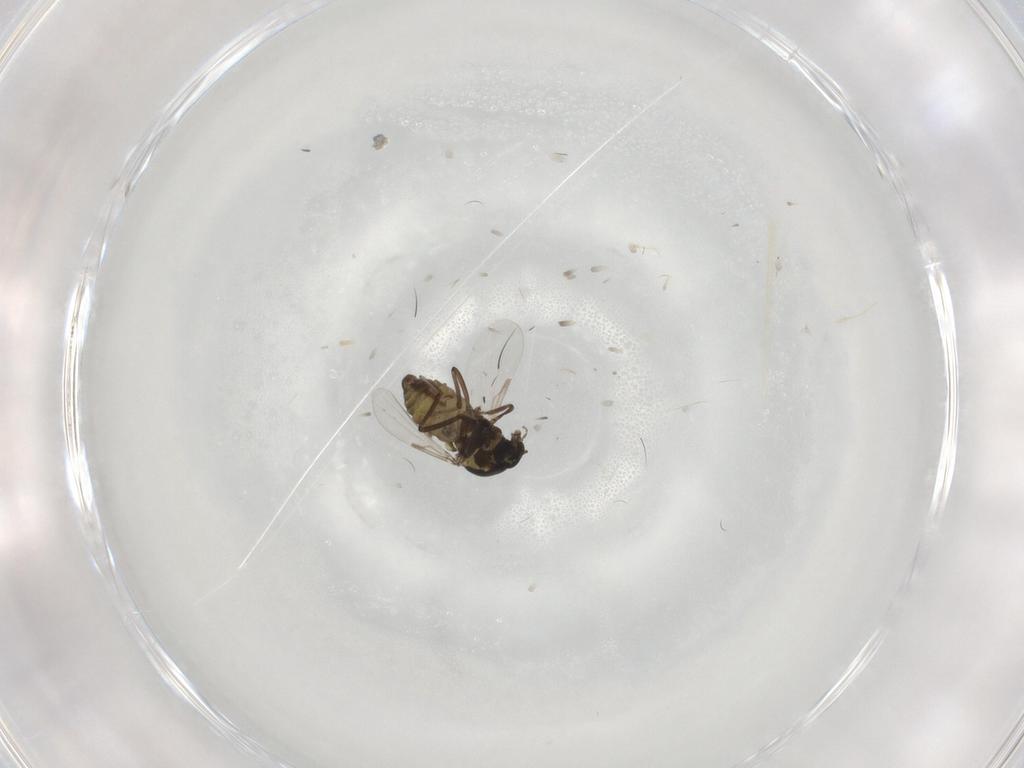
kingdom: Animalia
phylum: Arthropoda
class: Insecta
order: Diptera
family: Ceratopogonidae
